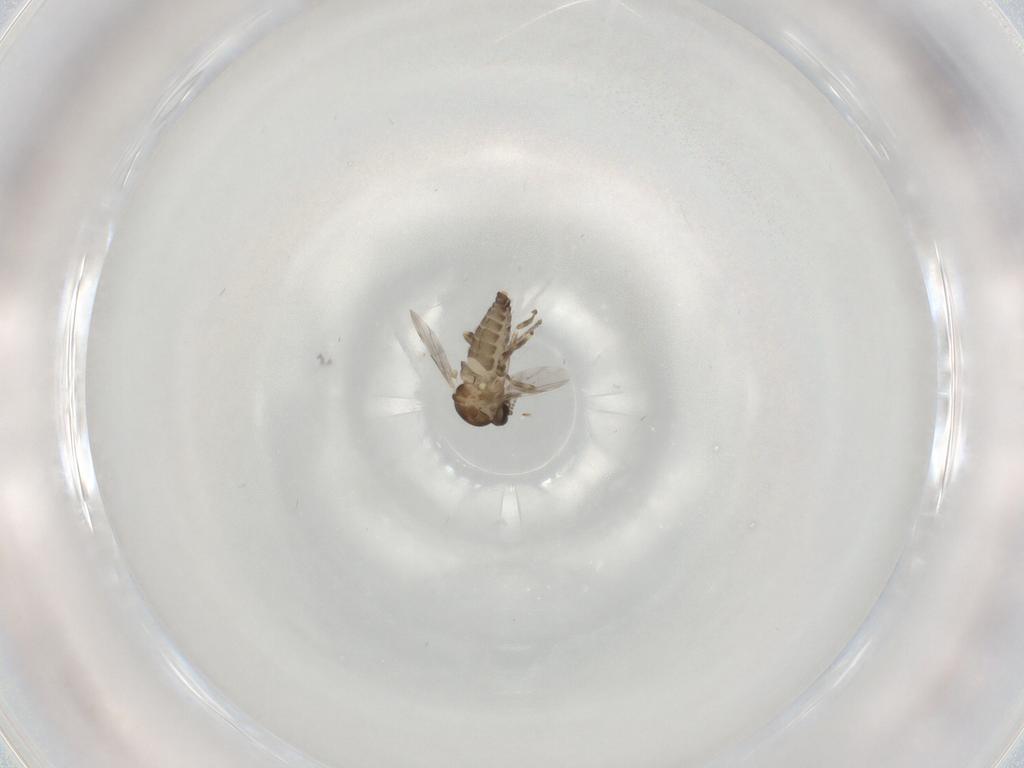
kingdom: Animalia
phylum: Arthropoda
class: Insecta
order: Diptera
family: Ceratopogonidae
